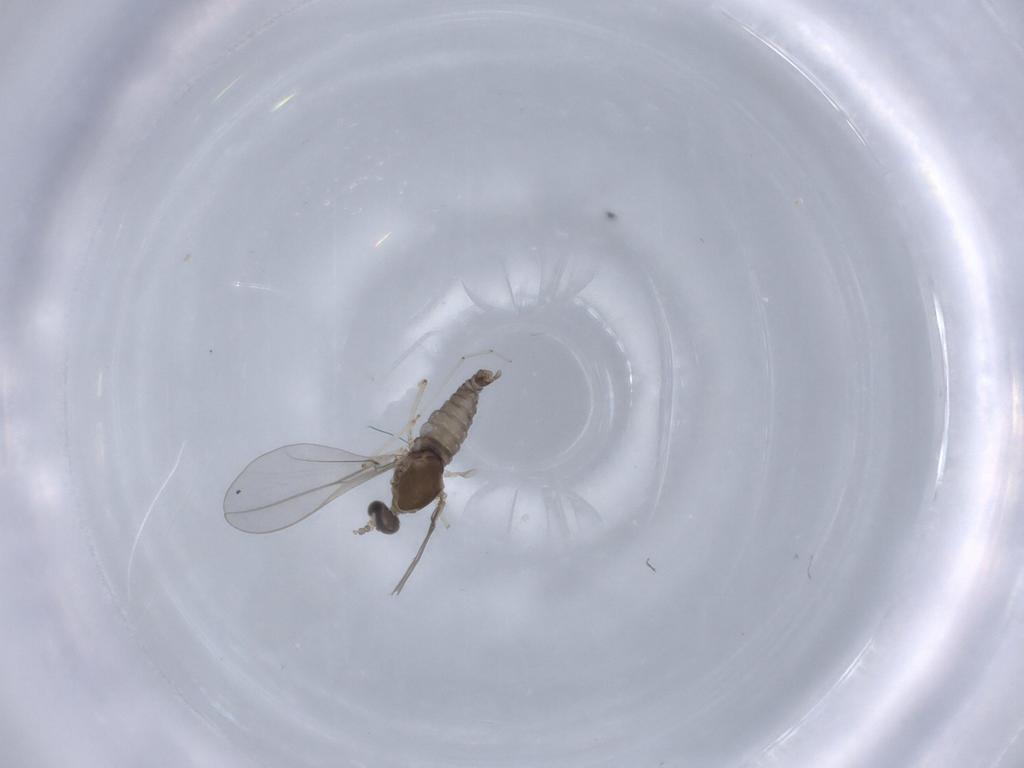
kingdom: Animalia
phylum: Arthropoda
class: Insecta
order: Diptera
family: Cecidomyiidae
